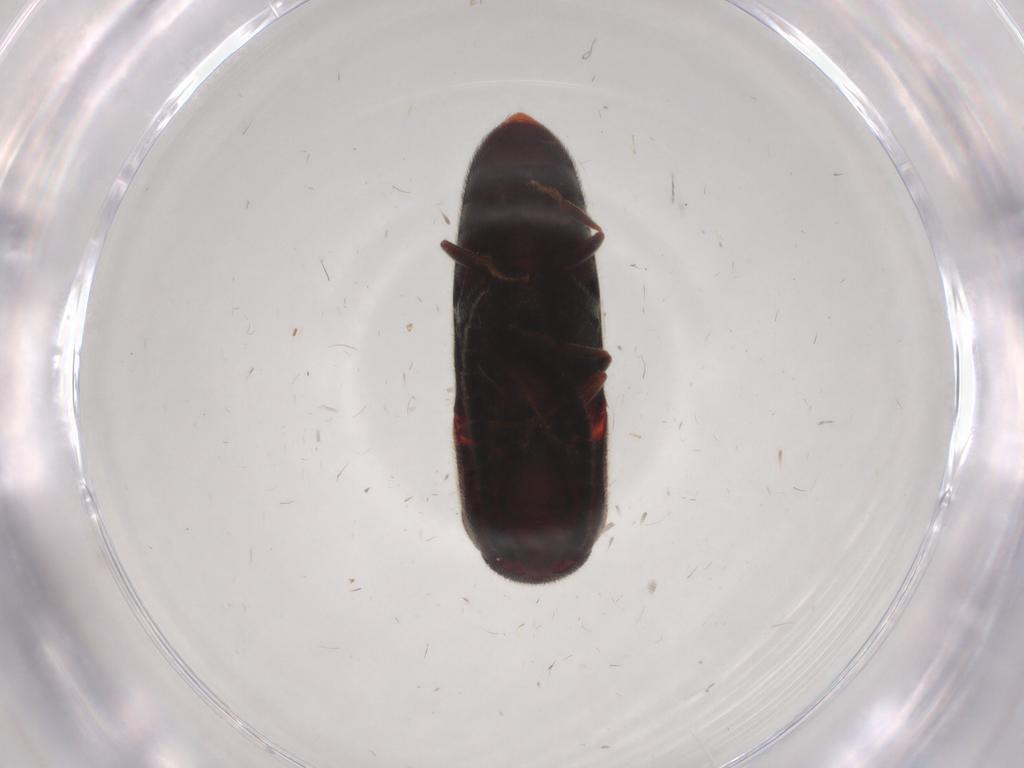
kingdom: Animalia
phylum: Arthropoda
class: Insecta
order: Coleoptera
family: Eucnemidae
